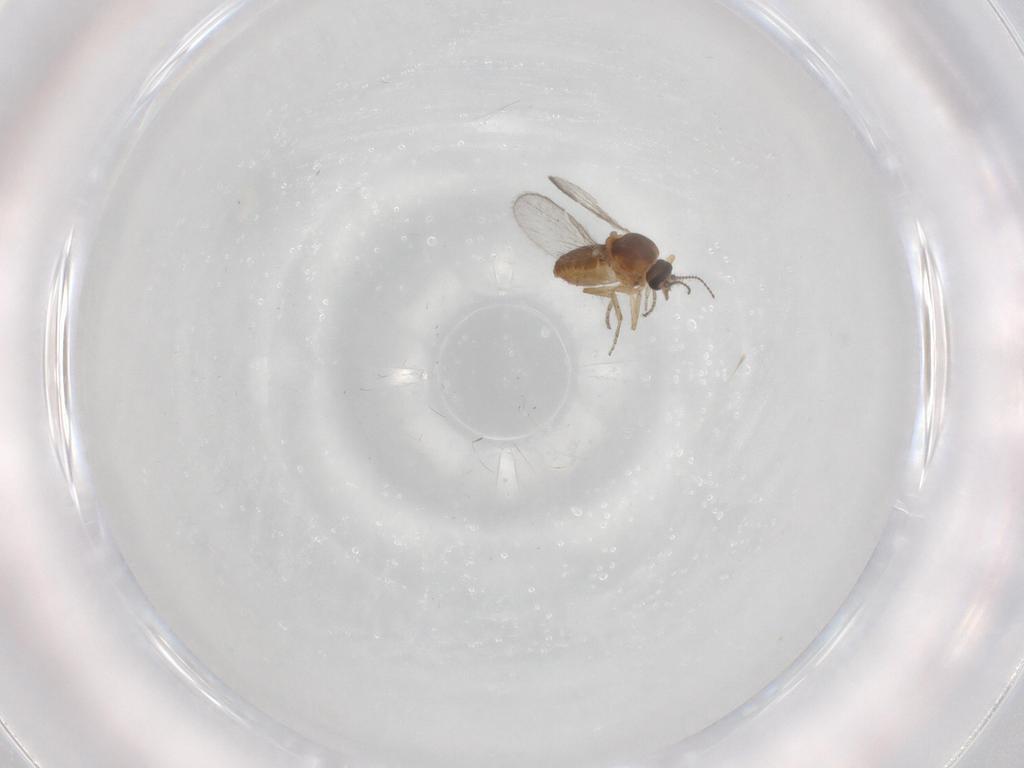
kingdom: Animalia
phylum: Arthropoda
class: Insecta
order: Diptera
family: Ceratopogonidae
